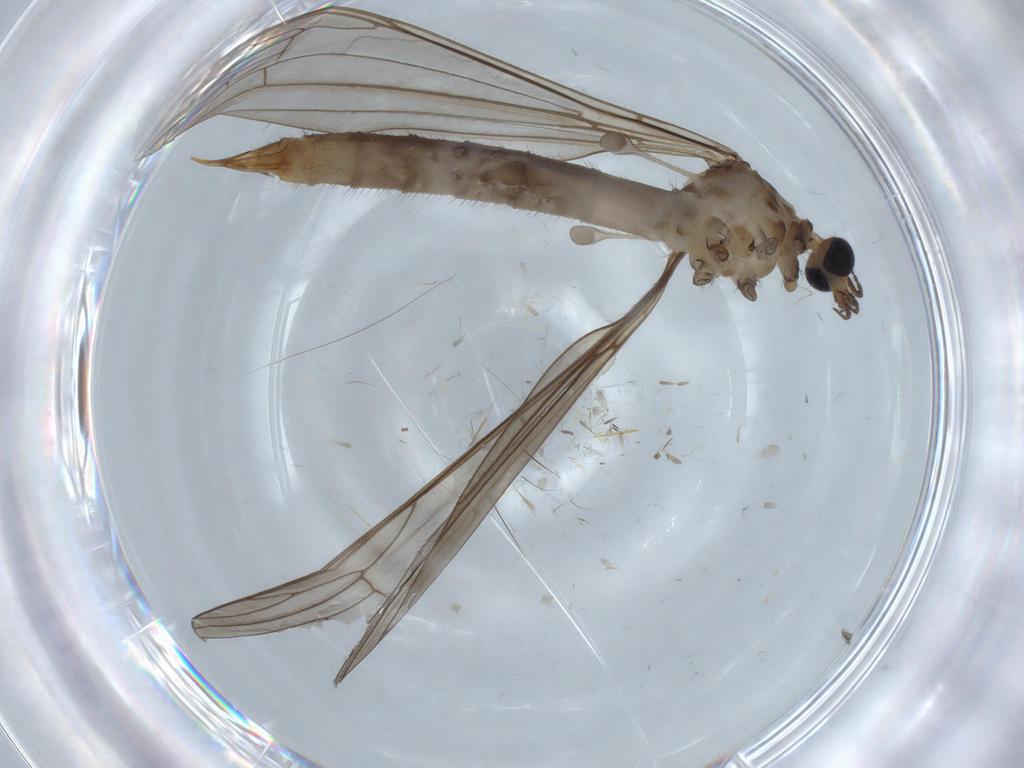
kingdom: Animalia
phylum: Arthropoda
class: Insecta
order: Diptera
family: Limoniidae
